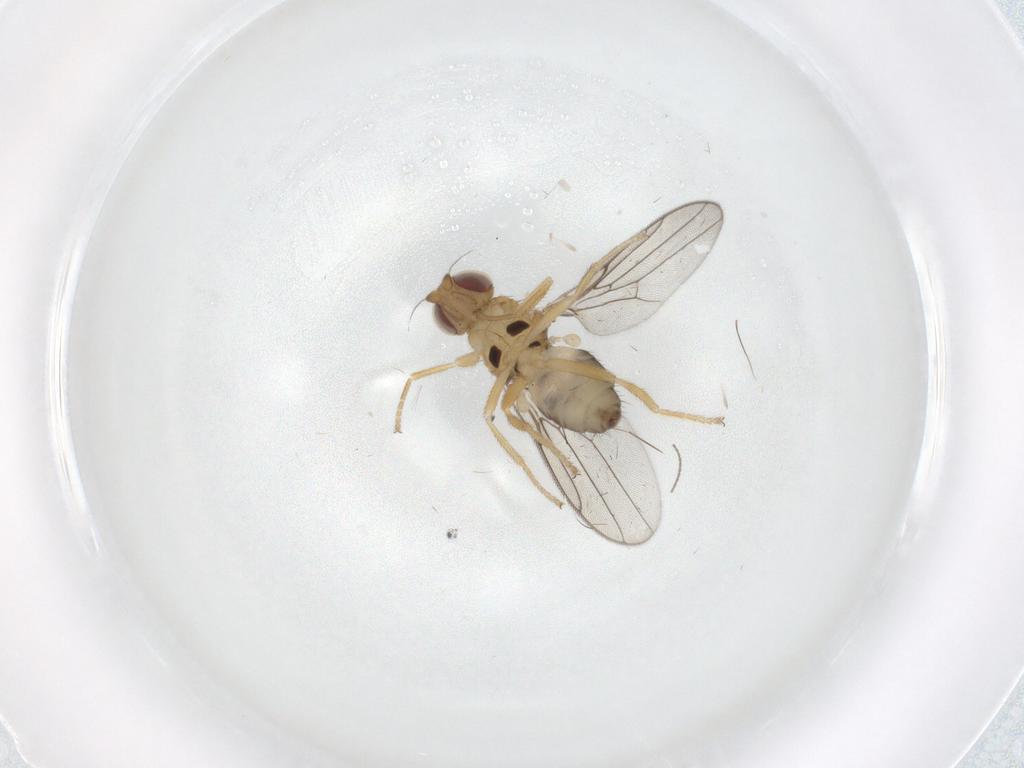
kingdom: Animalia
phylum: Arthropoda
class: Insecta
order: Diptera
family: Chloropidae
